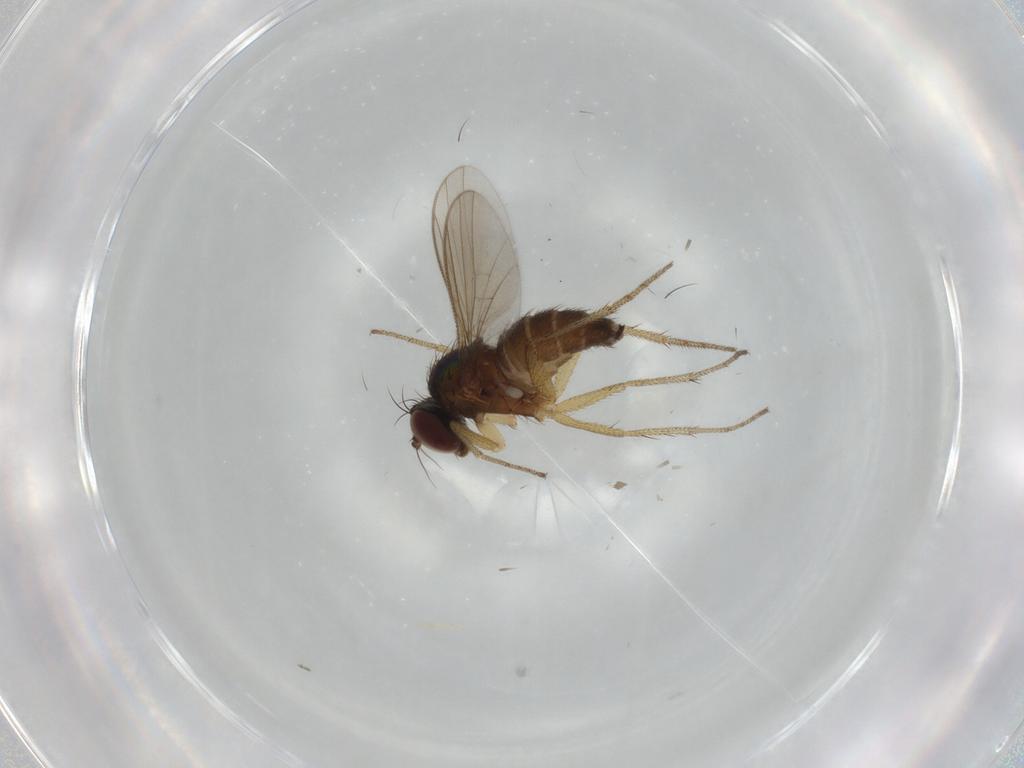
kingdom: Animalia
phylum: Arthropoda
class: Insecta
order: Diptera
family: Dolichopodidae
